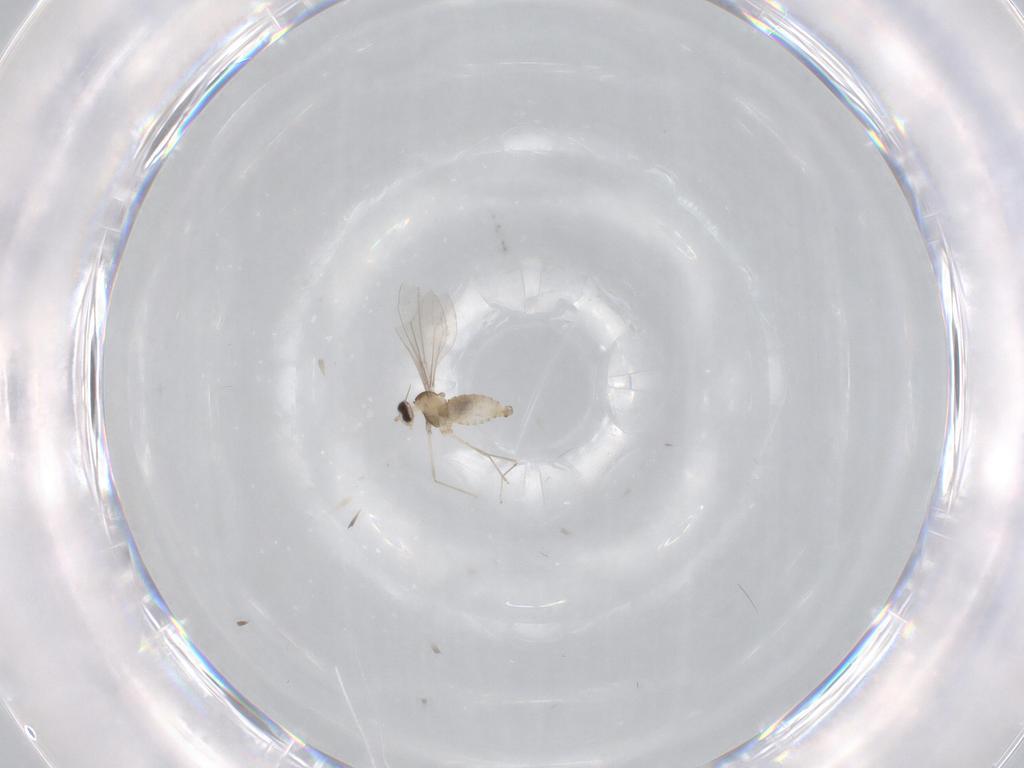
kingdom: Animalia
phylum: Arthropoda
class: Insecta
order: Diptera
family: Cecidomyiidae
